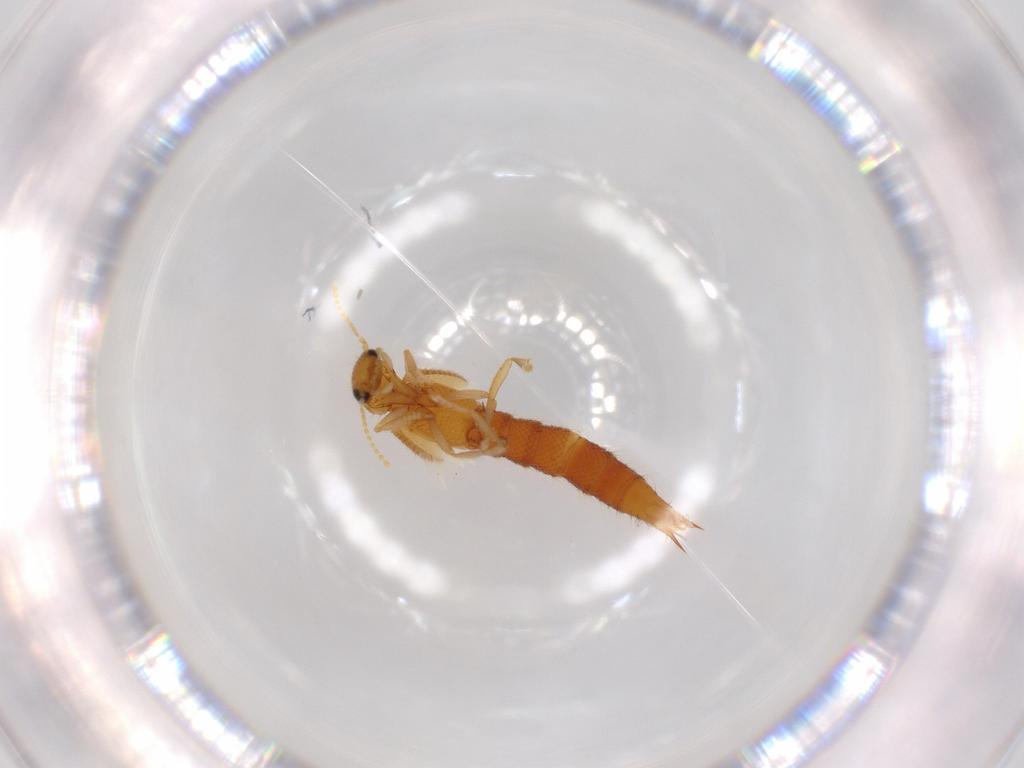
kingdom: Animalia
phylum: Arthropoda
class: Insecta
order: Coleoptera
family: Staphylinidae
